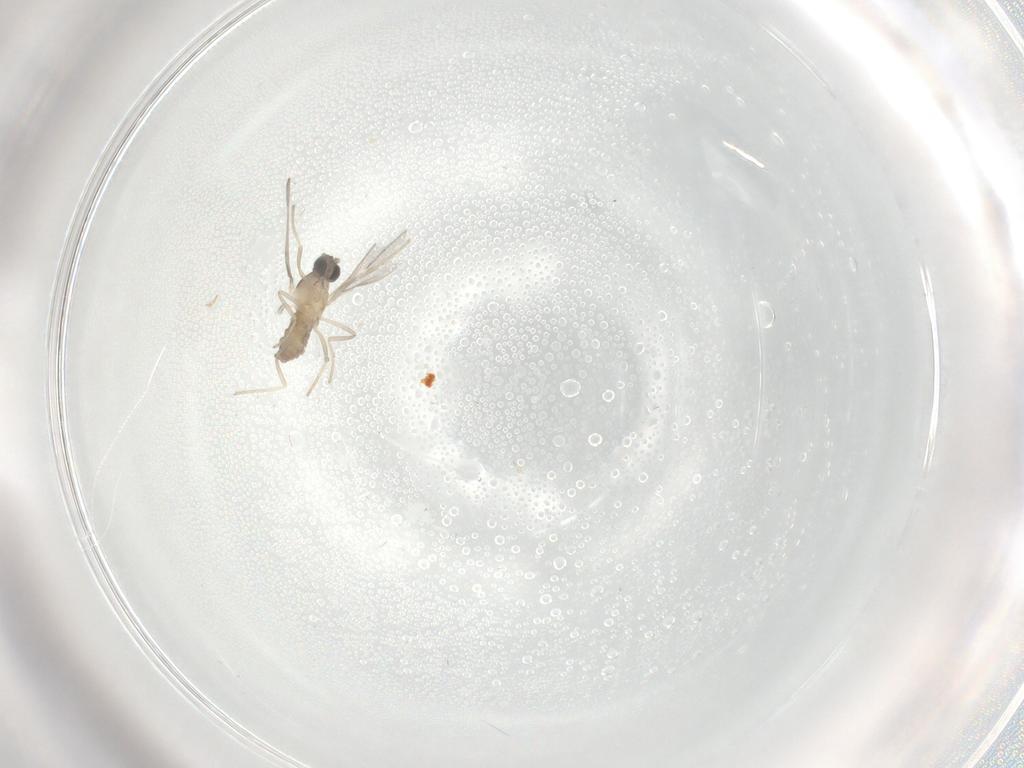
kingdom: Animalia
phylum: Arthropoda
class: Insecta
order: Diptera
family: Cecidomyiidae
